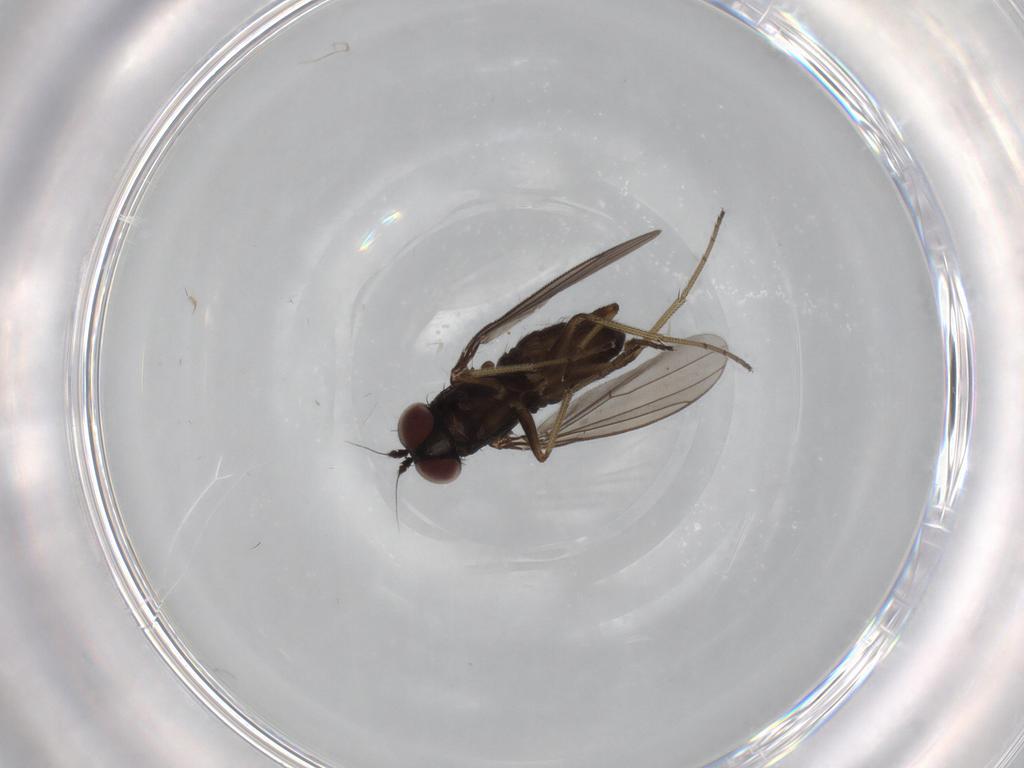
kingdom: Animalia
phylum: Arthropoda
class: Insecta
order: Diptera
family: Dolichopodidae
